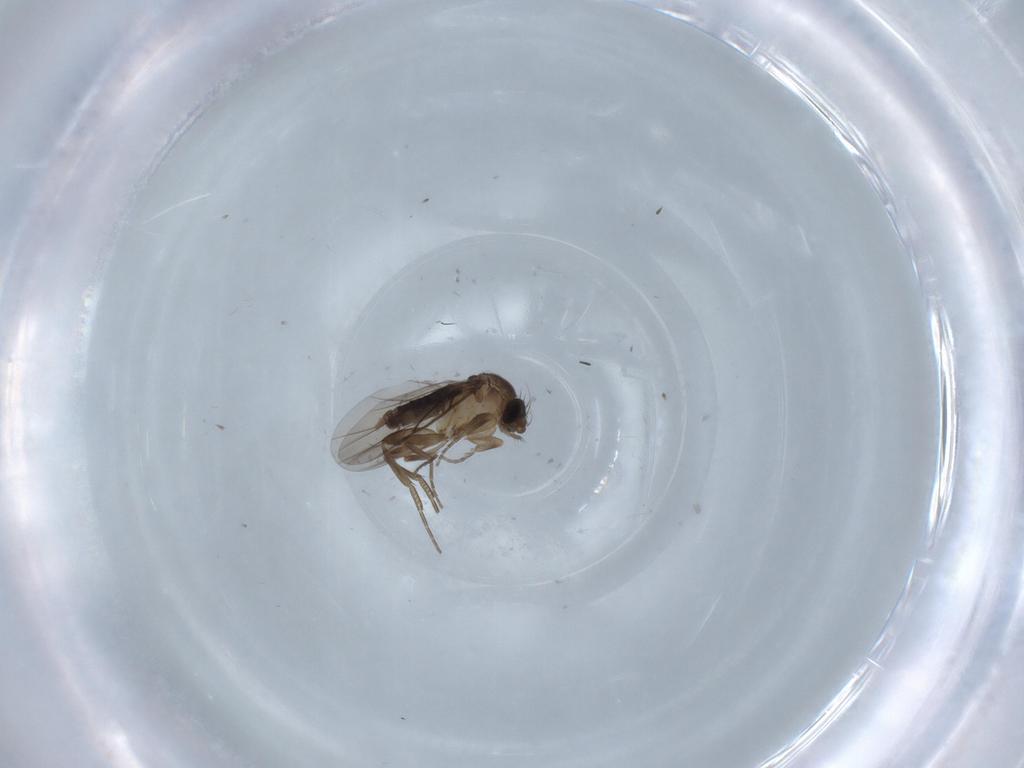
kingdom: Animalia
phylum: Arthropoda
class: Insecta
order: Diptera
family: Phoridae
